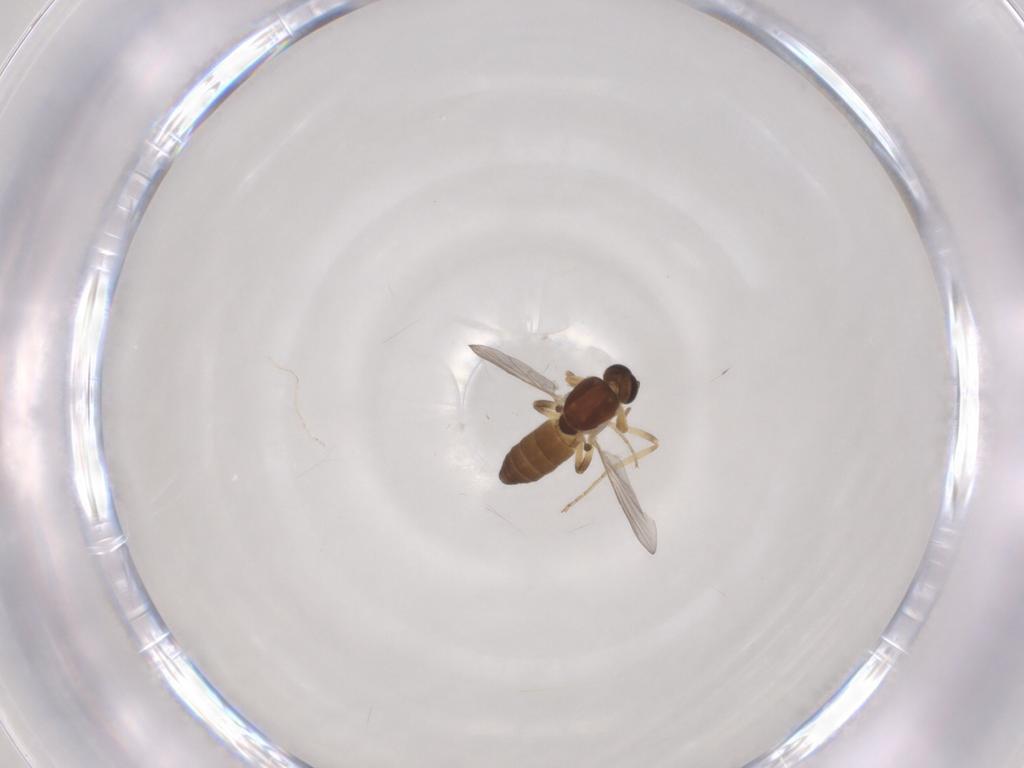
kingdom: Animalia
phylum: Arthropoda
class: Insecta
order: Diptera
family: Ceratopogonidae
